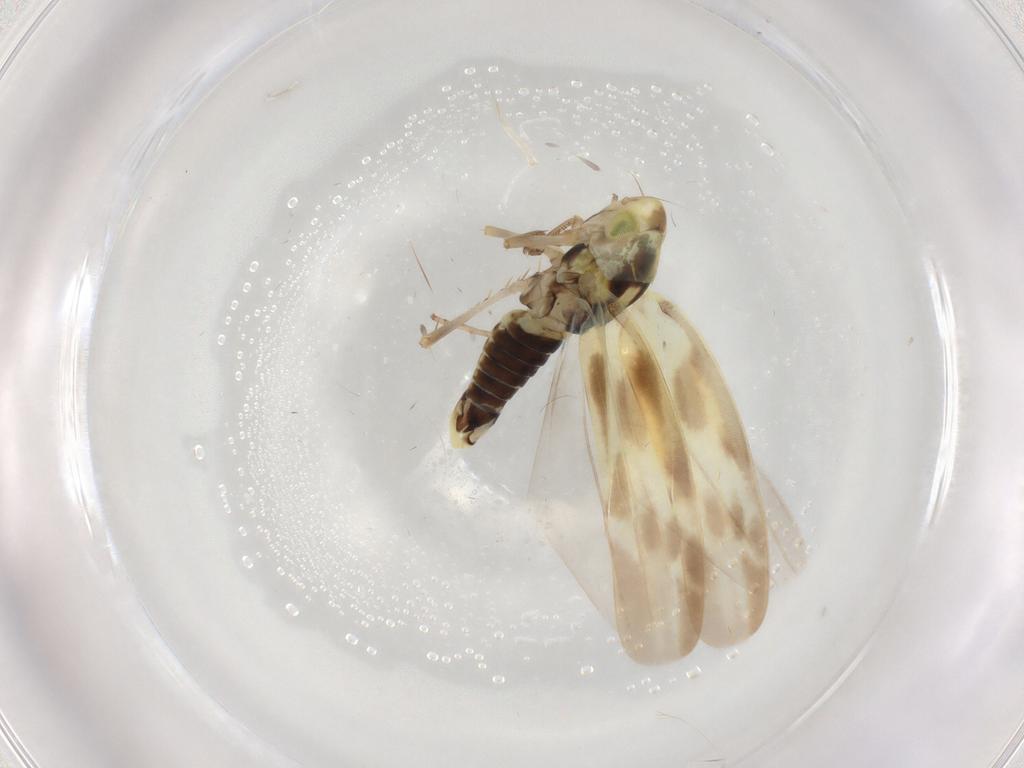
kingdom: Animalia
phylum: Arthropoda
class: Insecta
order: Hemiptera
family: Cicadellidae
